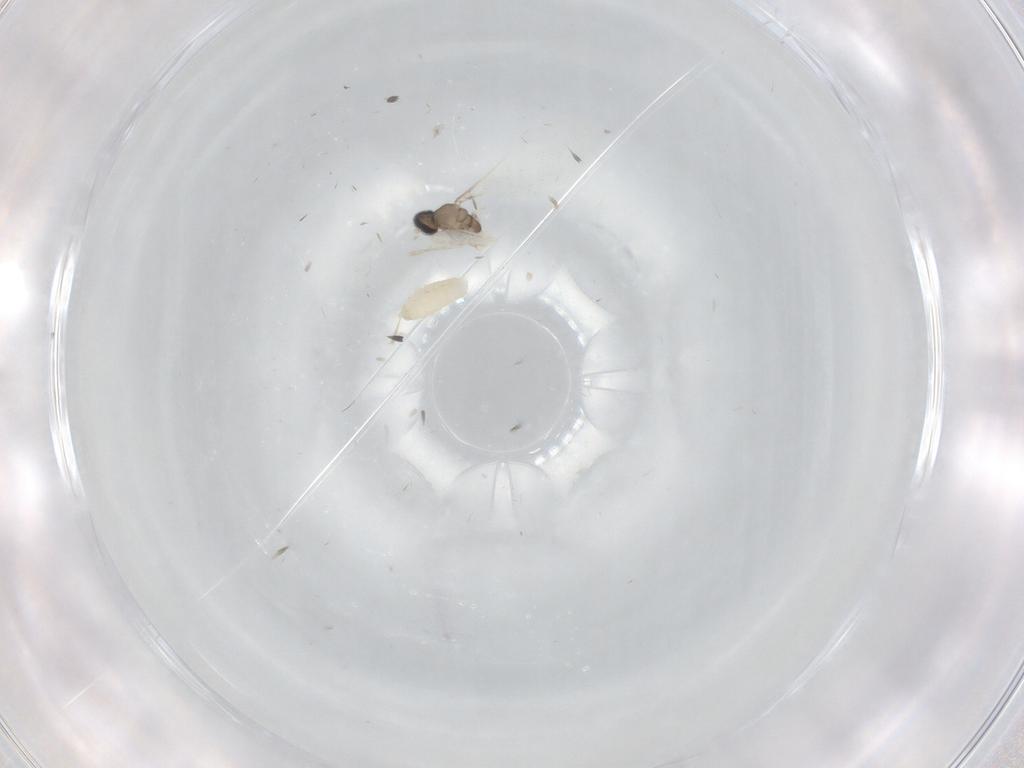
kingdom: Animalia
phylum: Arthropoda
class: Insecta
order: Diptera
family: Cecidomyiidae
